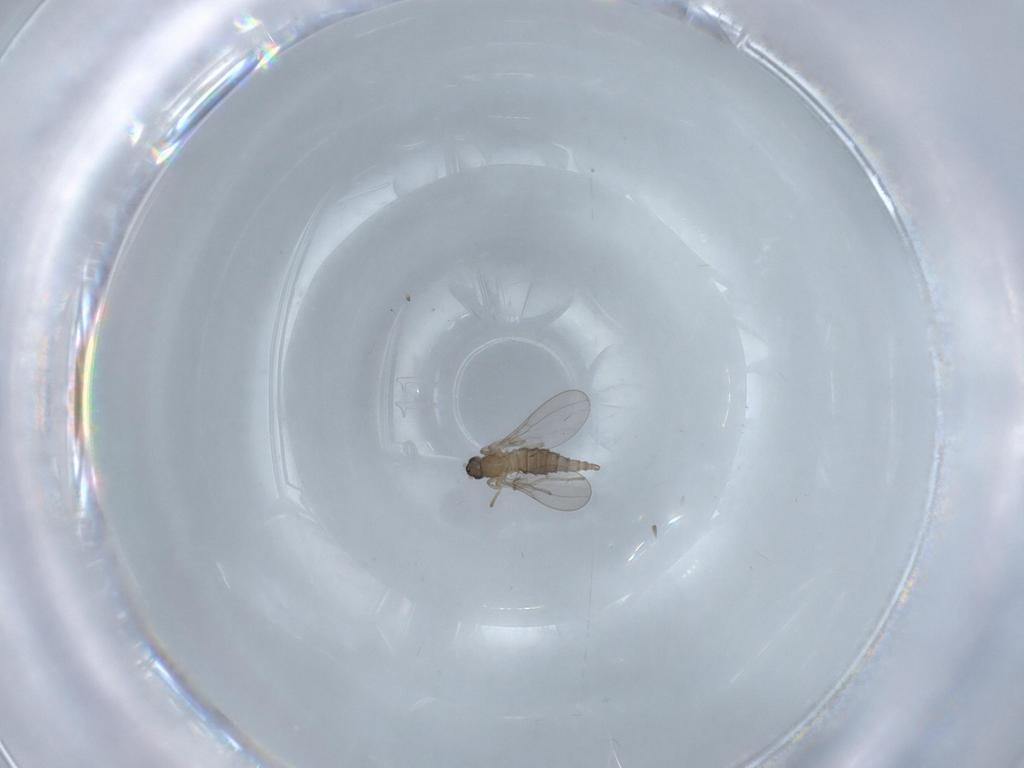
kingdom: Animalia
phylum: Arthropoda
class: Insecta
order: Diptera
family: Cecidomyiidae
